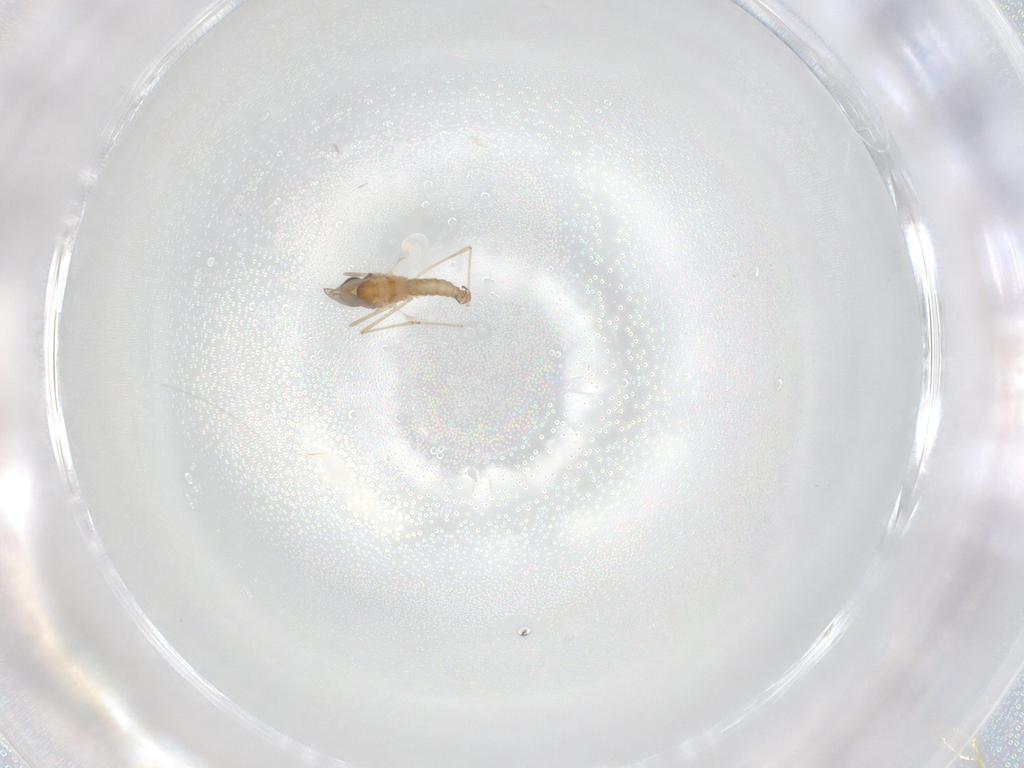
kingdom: Animalia
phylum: Arthropoda
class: Insecta
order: Diptera
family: Cecidomyiidae
